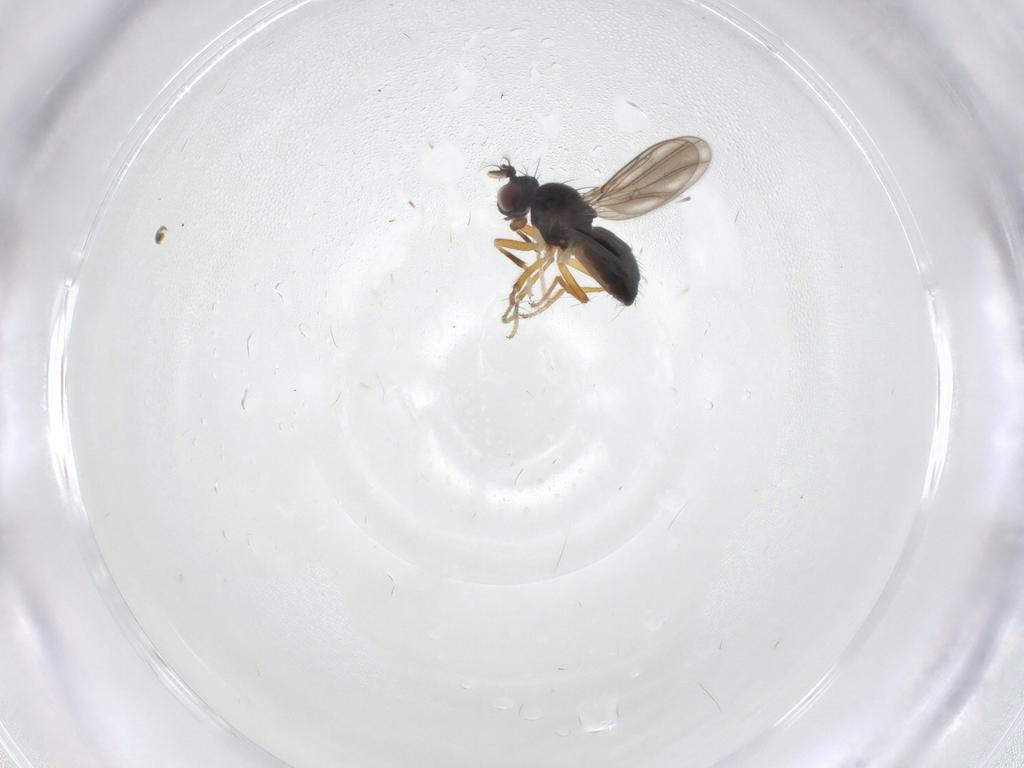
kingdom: Animalia
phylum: Arthropoda
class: Insecta
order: Diptera
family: Ephydridae
